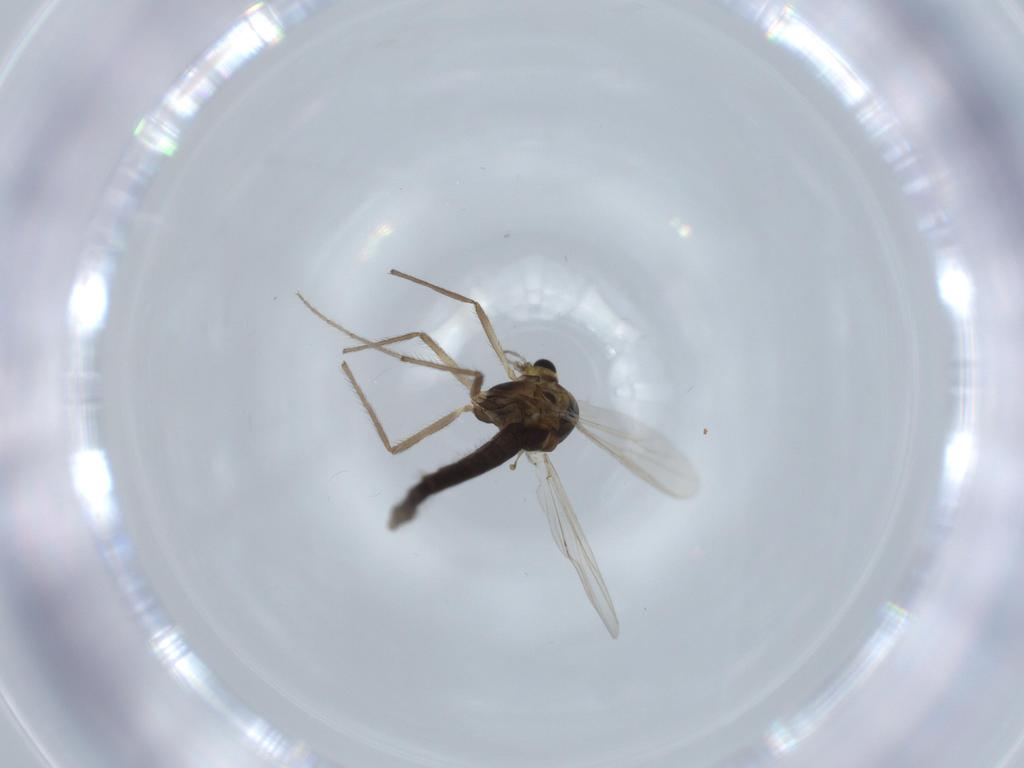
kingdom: Animalia
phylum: Arthropoda
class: Insecta
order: Diptera
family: Chironomidae
